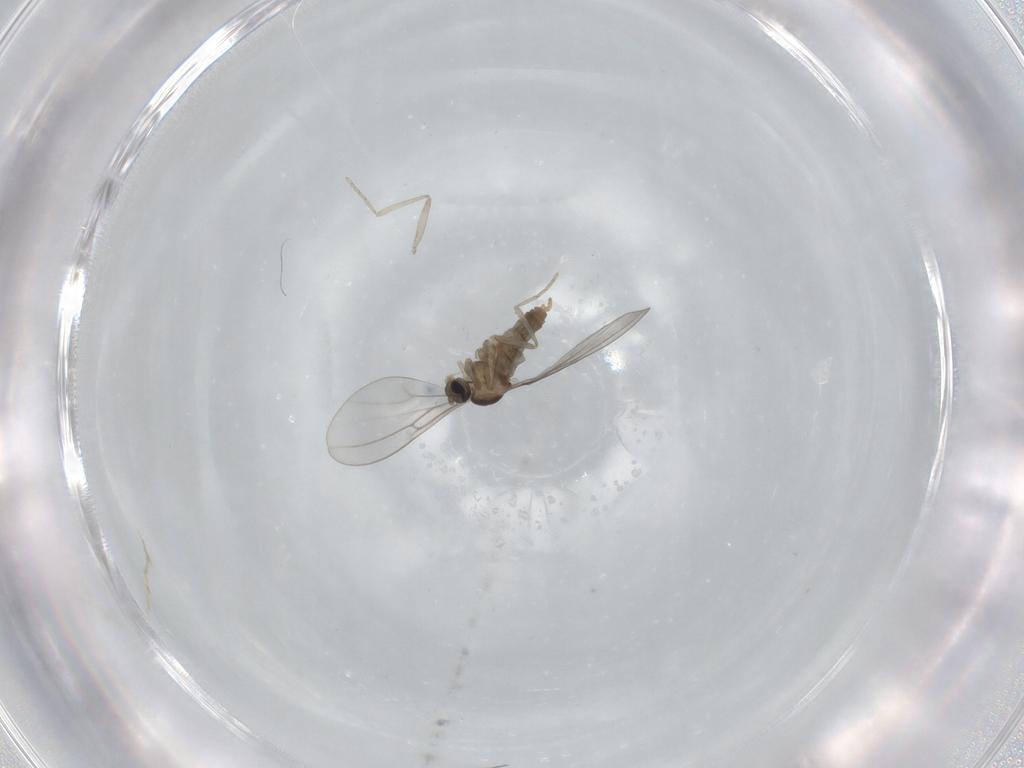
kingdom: Animalia
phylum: Arthropoda
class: Insecta
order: Diptera
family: Cecidomyiidae
